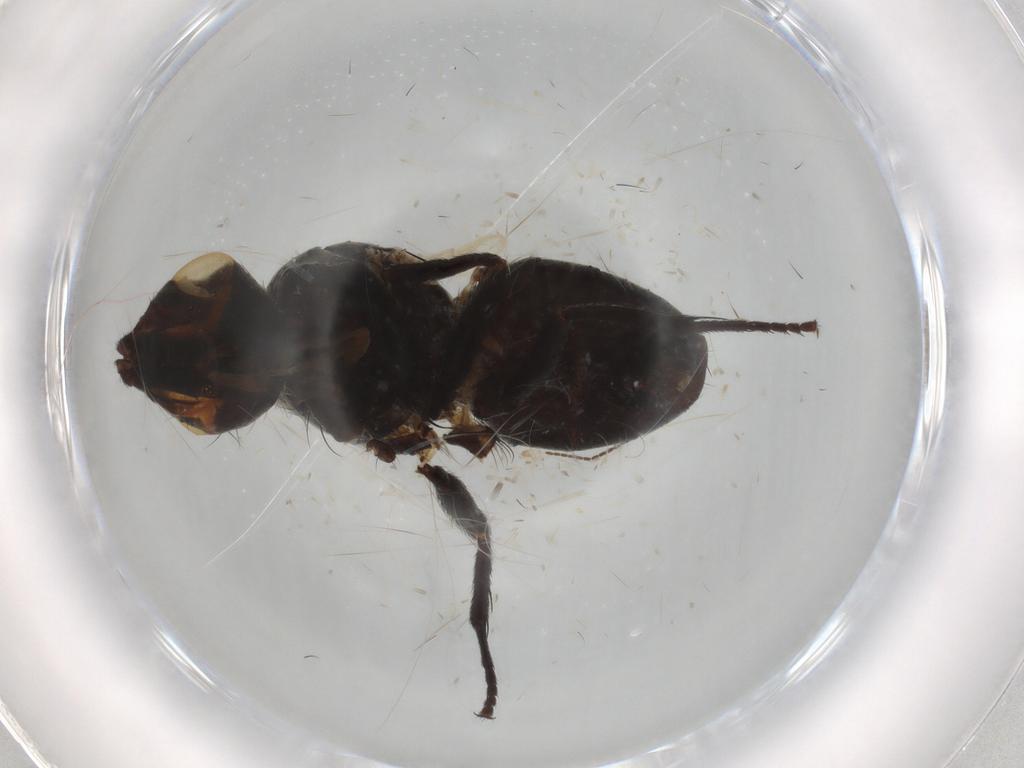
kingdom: Animalia
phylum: Arthropoda
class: Insecta
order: Diptera
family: Tachinidae
